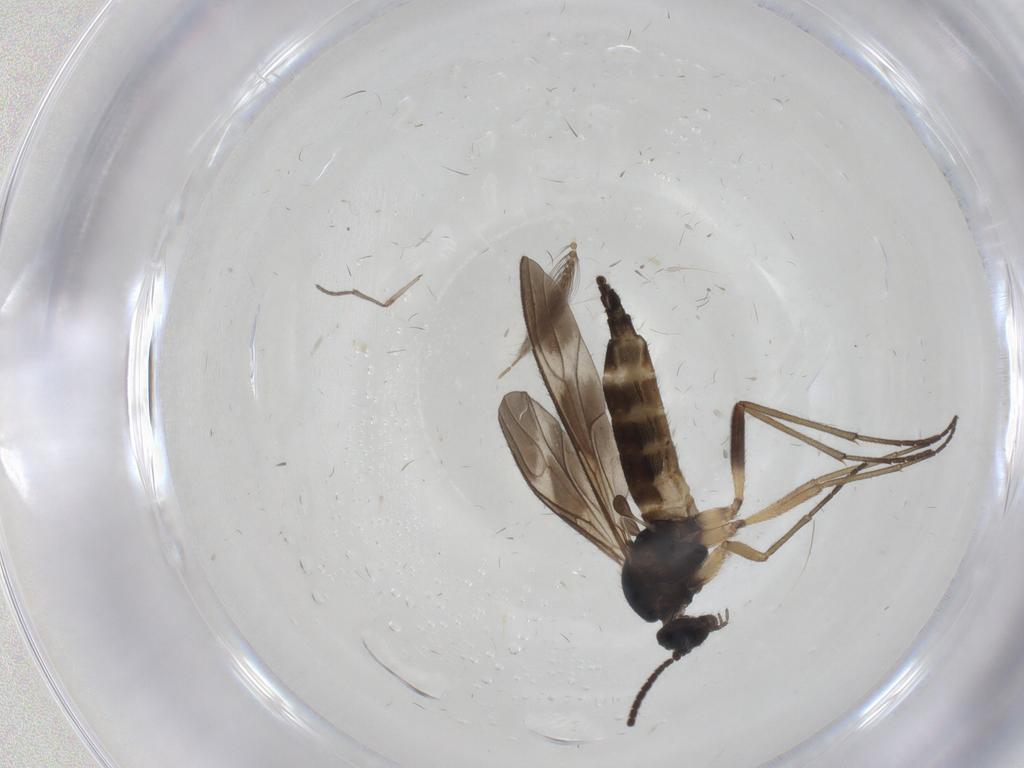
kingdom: Animalia
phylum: Arthropoda
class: Insecta
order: Diptera
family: Sciaridae
